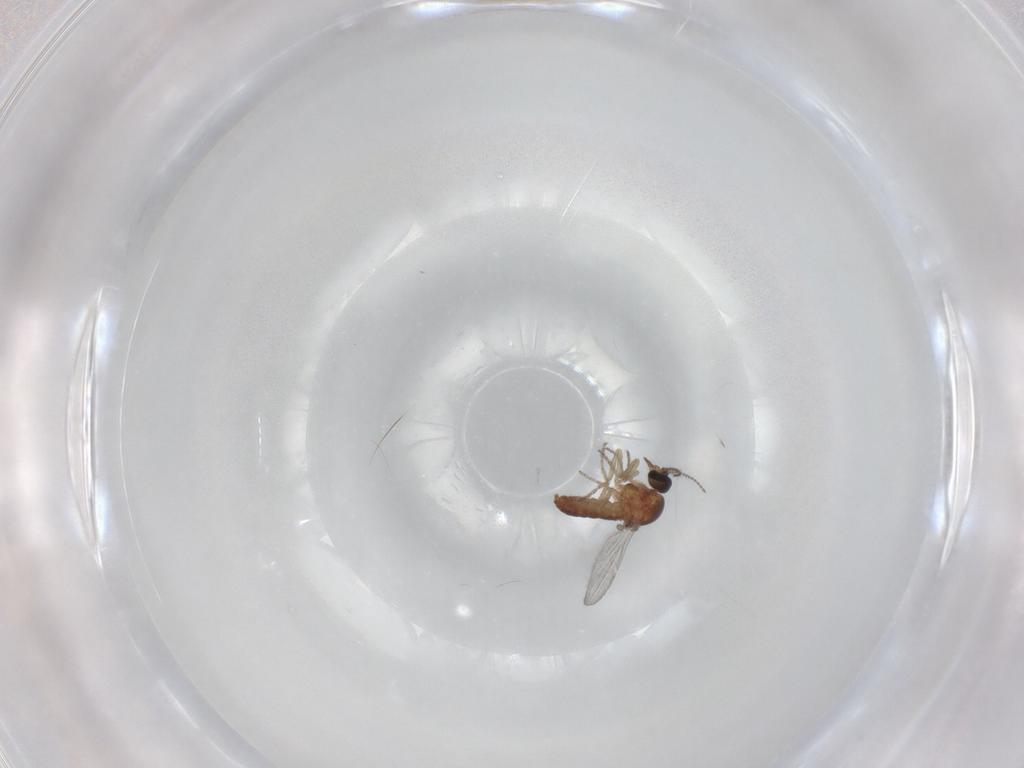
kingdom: Animalia
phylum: Arthropoda
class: Insecta
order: Diptera
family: Ceratopogonidae
